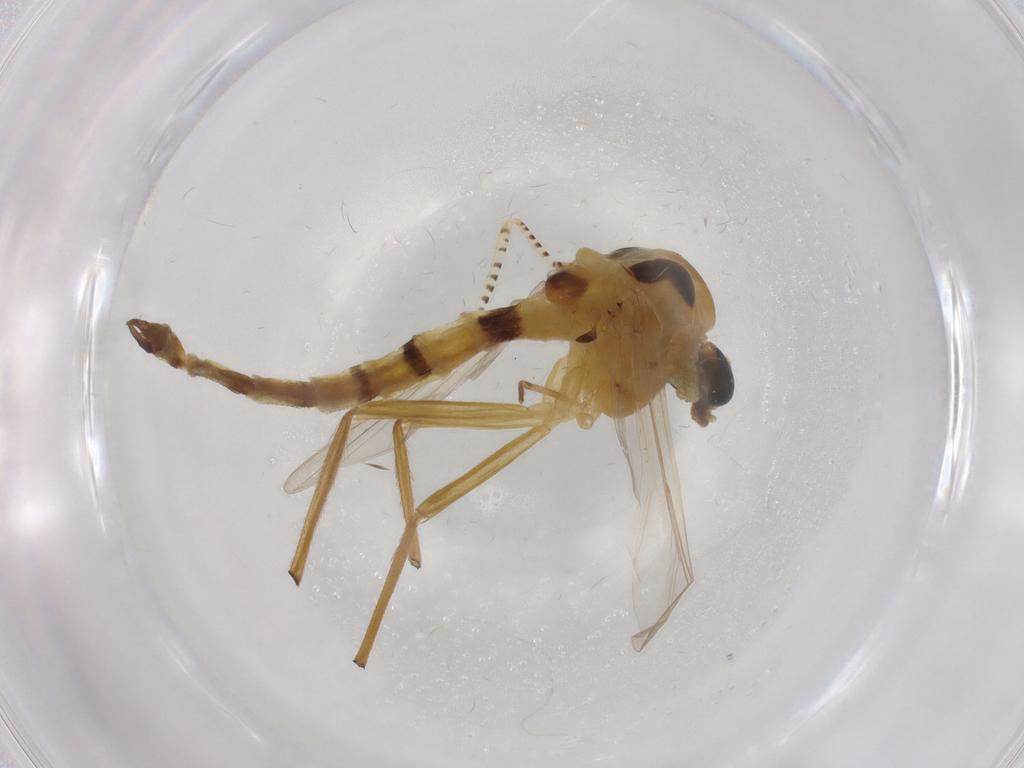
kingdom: Animalia
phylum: Arthropoda
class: Insecta
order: Diptera
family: Chironomidae
